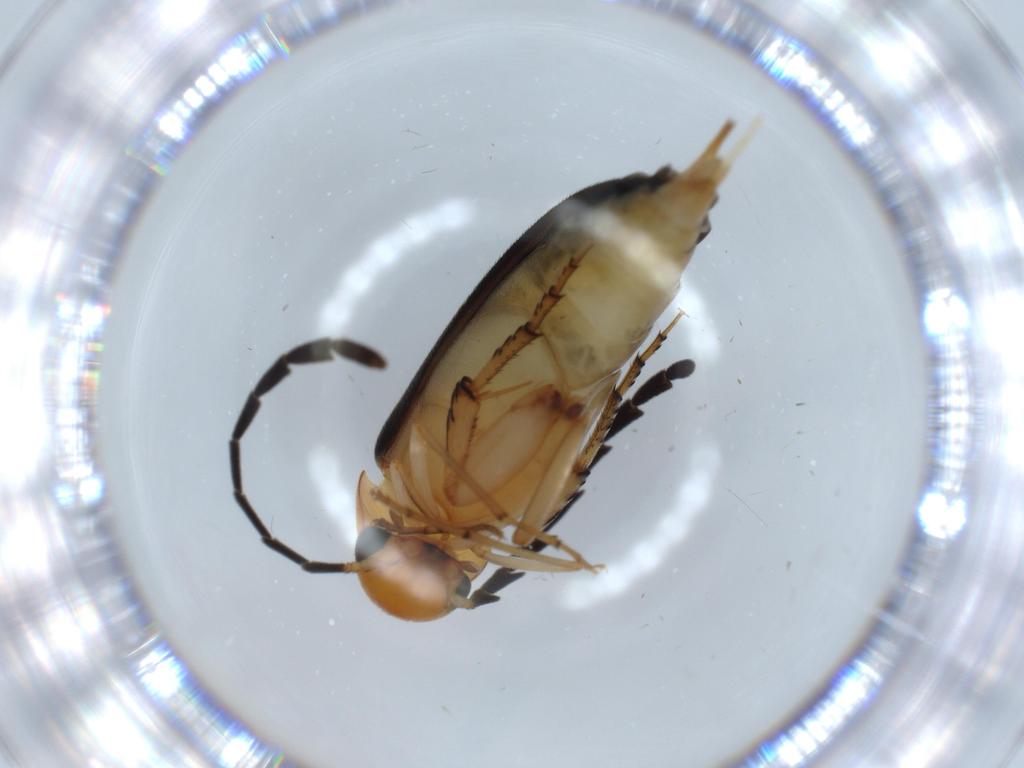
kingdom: Animalia
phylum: Arthropoda
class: Insecta
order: Coleoptera
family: Mordellidae
